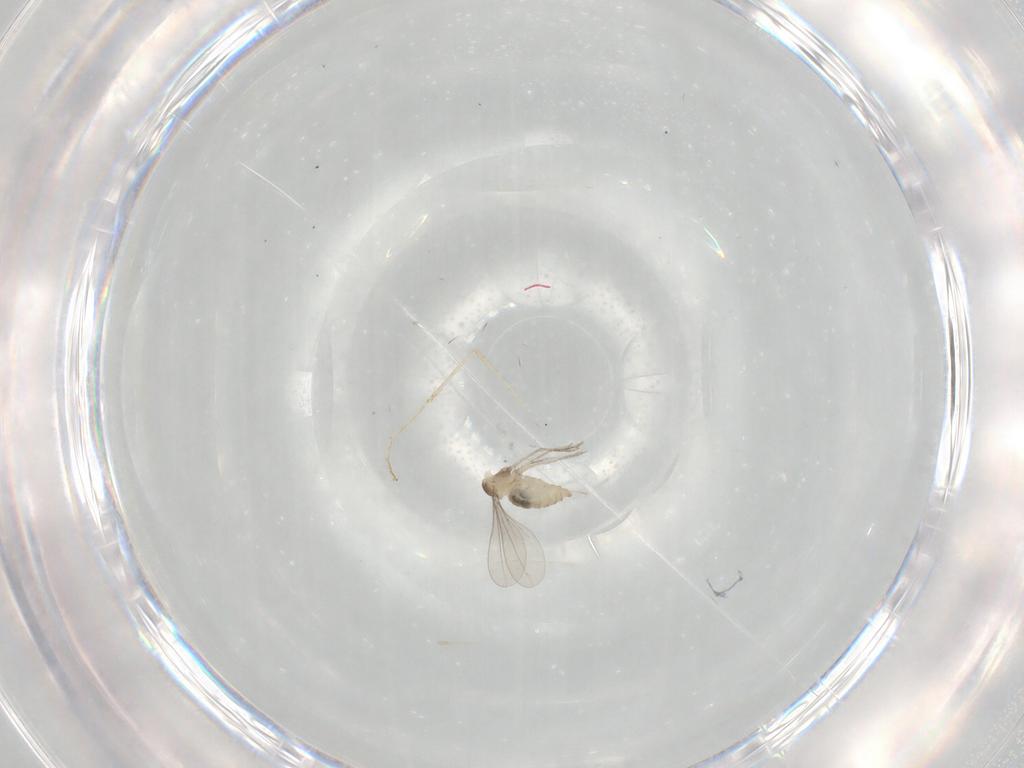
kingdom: Animalia
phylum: Arthropoda
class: Insecta
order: Diptera
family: Cecidomyiidae
